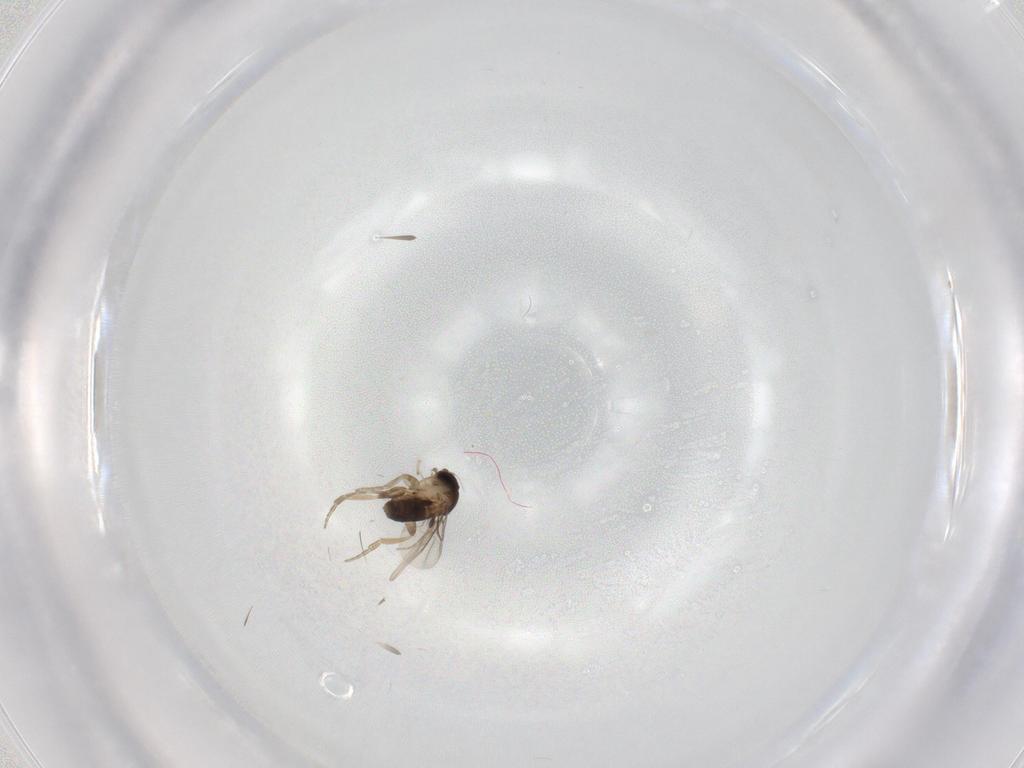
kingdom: Animalia
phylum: Arthropoda
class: Insecta
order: Diptera
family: Phoridae
